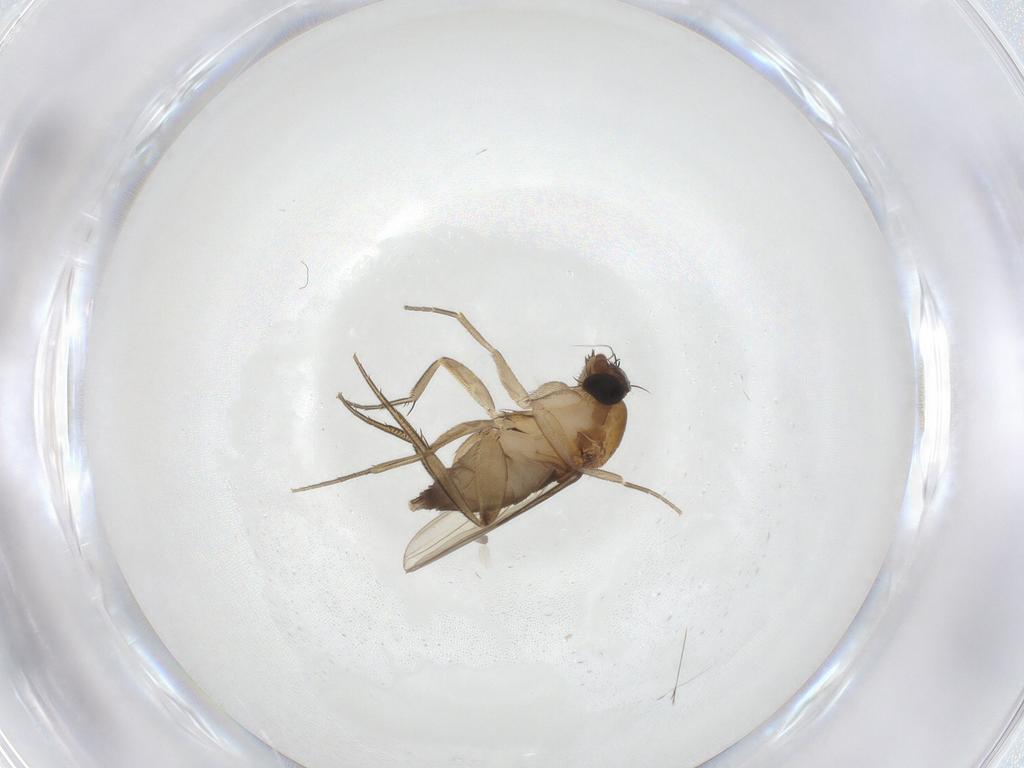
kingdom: Animalia
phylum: Arthropoda
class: Insecta
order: Diptera
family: Phoridae
